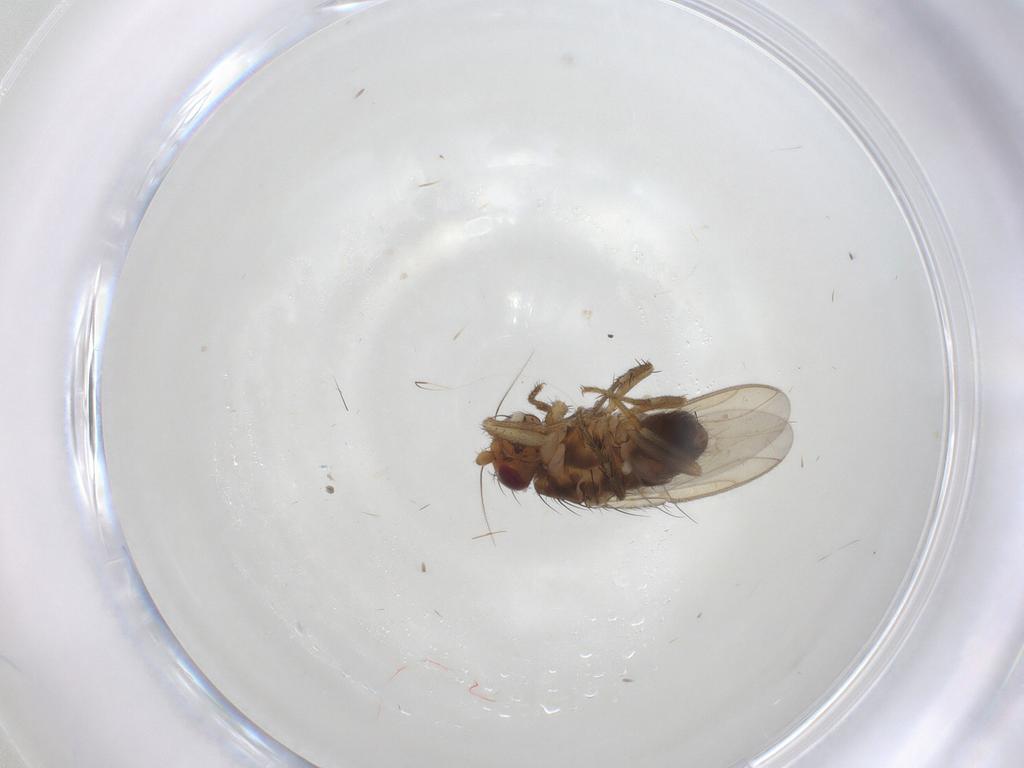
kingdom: Animalia
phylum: Arthropoda
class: Insecta
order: Diptera
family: Sphaeroceridae
